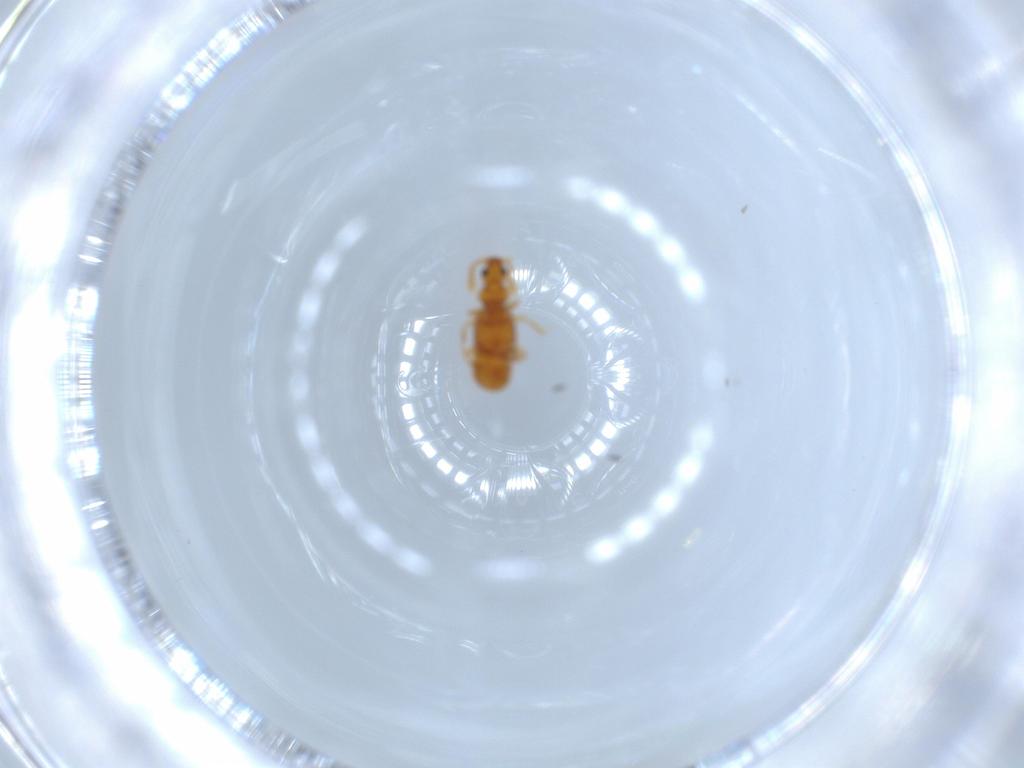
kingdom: Animalia
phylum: Arthropoda
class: Insecta
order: Coleoptera
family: Staphylinidae
